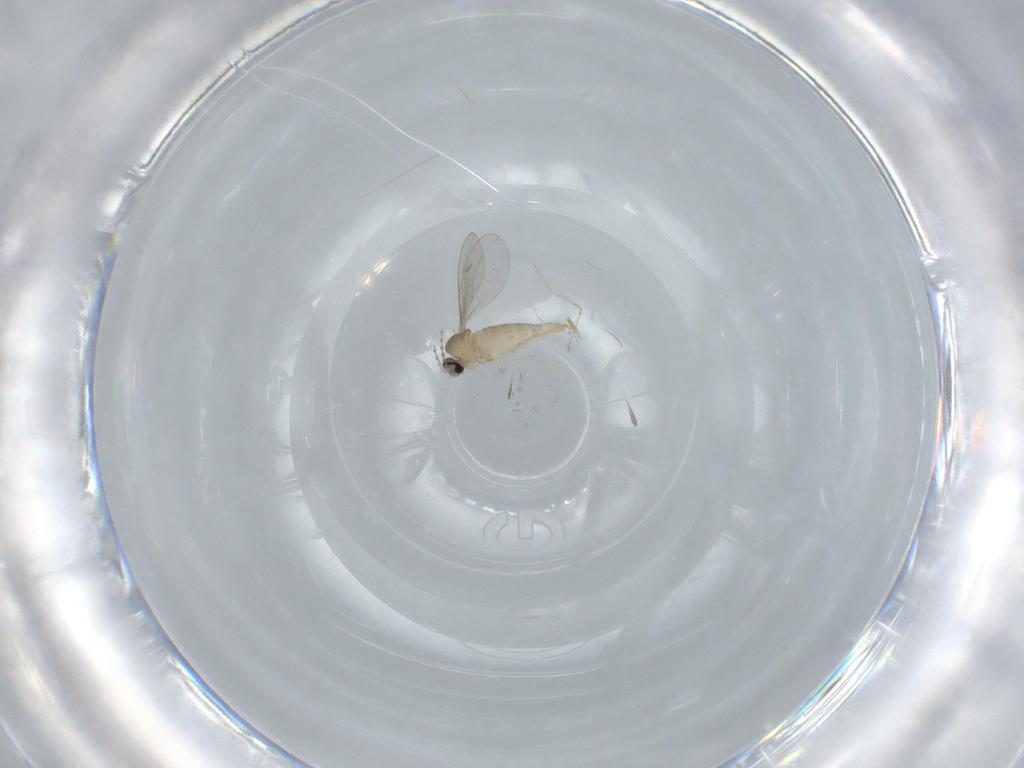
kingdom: Animalia
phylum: Arthropoda
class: Insecta
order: Diptera
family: Cecidomyiidae
